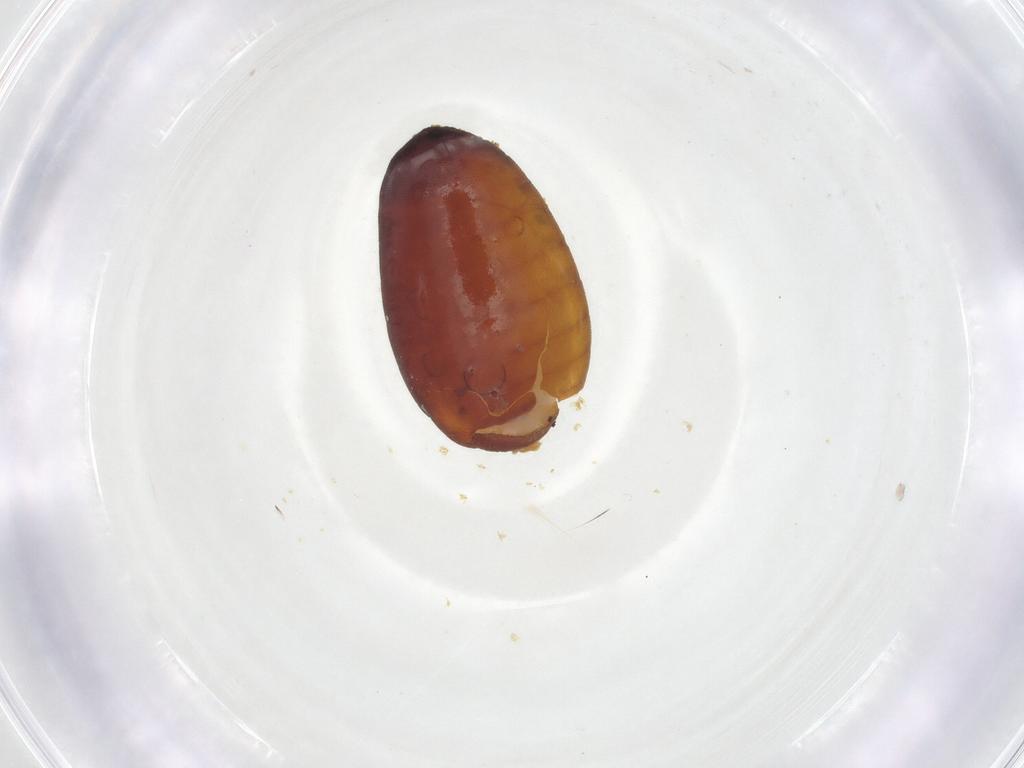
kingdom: Animalia
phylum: Arthropoda
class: Insecta
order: Diptera
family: Fergusoninidae
